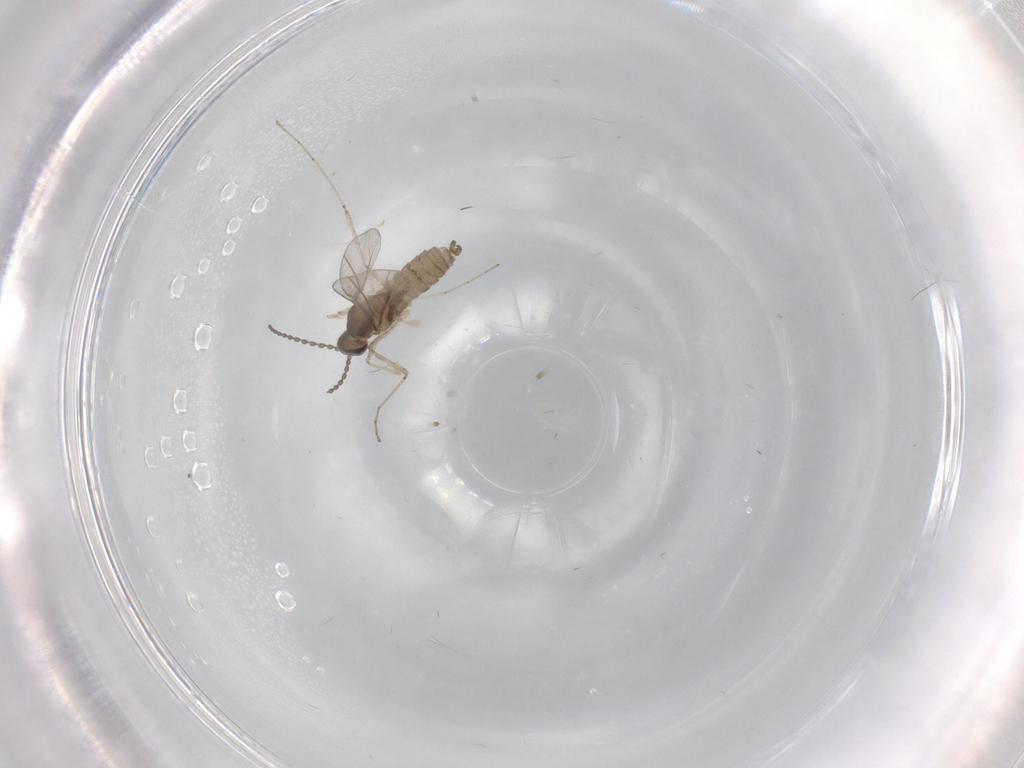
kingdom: Animalia
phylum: Arthropoda
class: Insecta
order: Diptera
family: Cecidomyiidae
